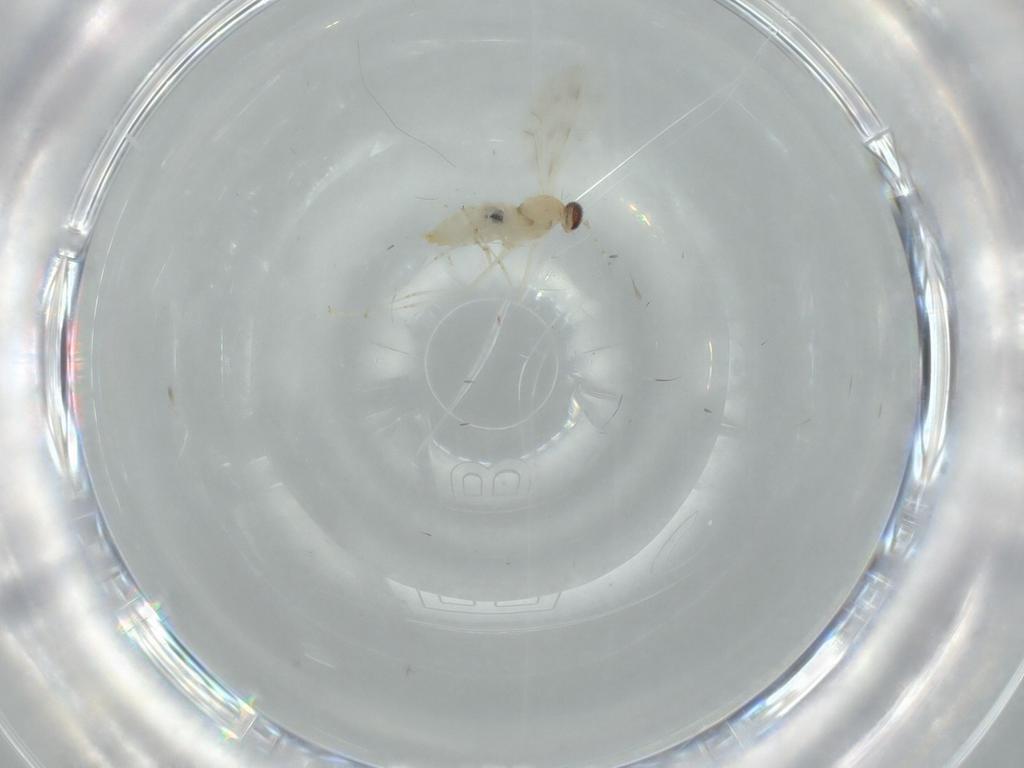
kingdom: Animalia
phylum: Arthropoda
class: Insecta
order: Diptera
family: Cecidomyiidae
